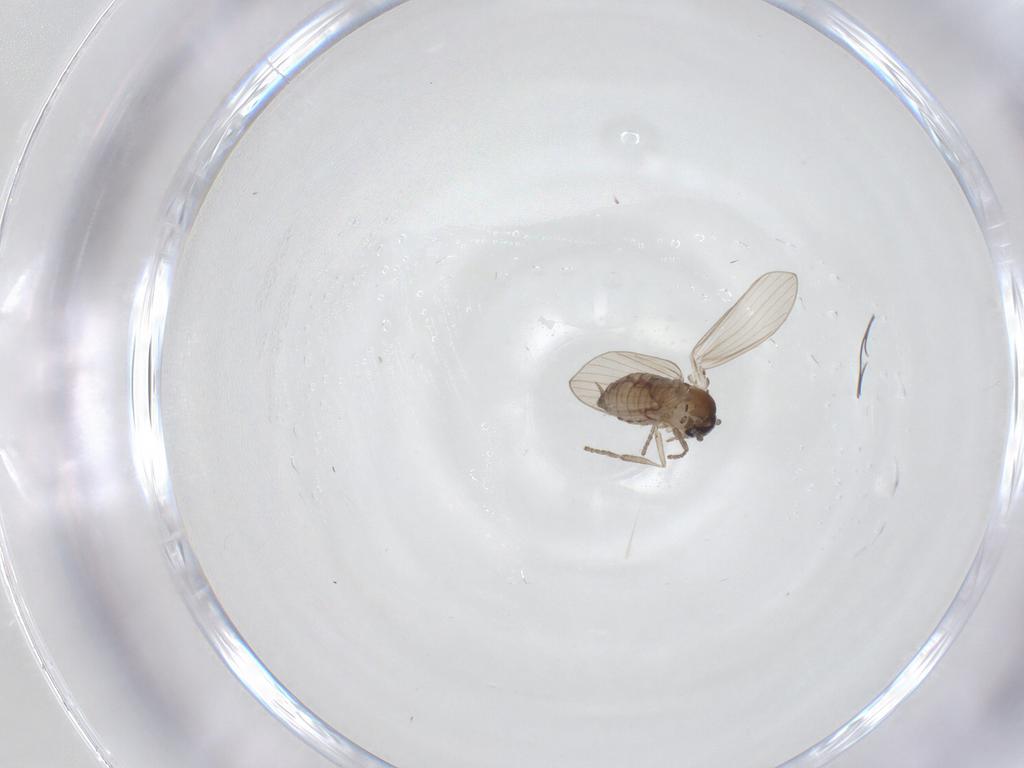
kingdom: Animalia
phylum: Arthropoda
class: Insecta
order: Diptera
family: Psychodidae
